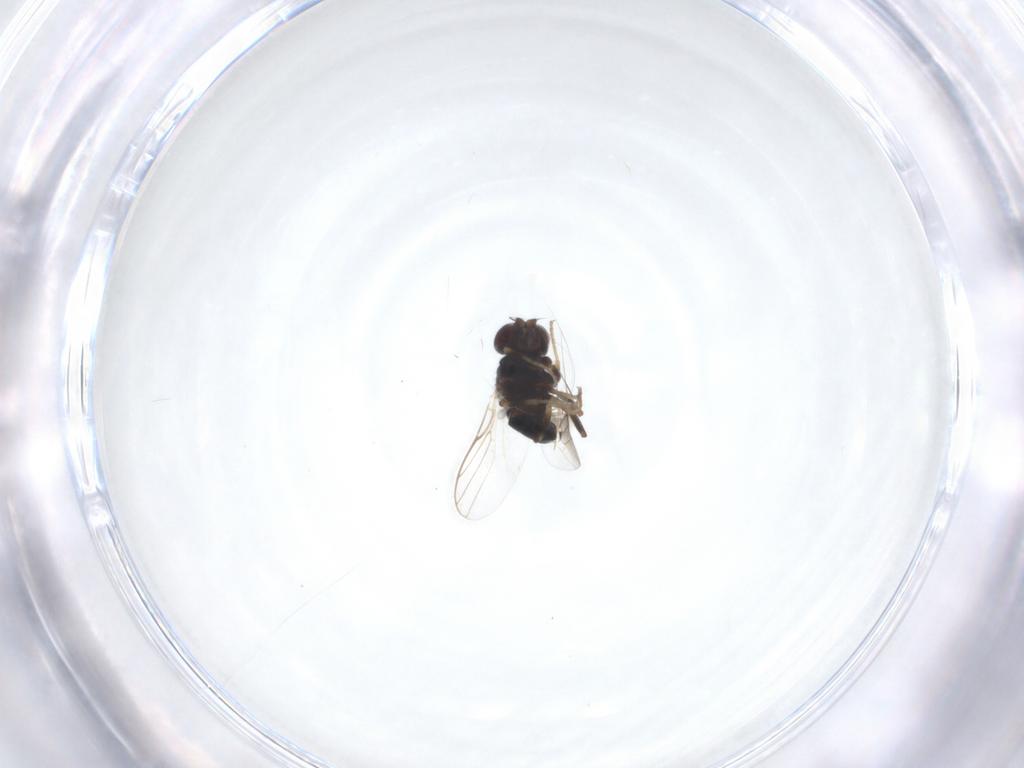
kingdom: Animalia
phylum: Arthropoda
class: Insecta
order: Diptera
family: Chloropidae
